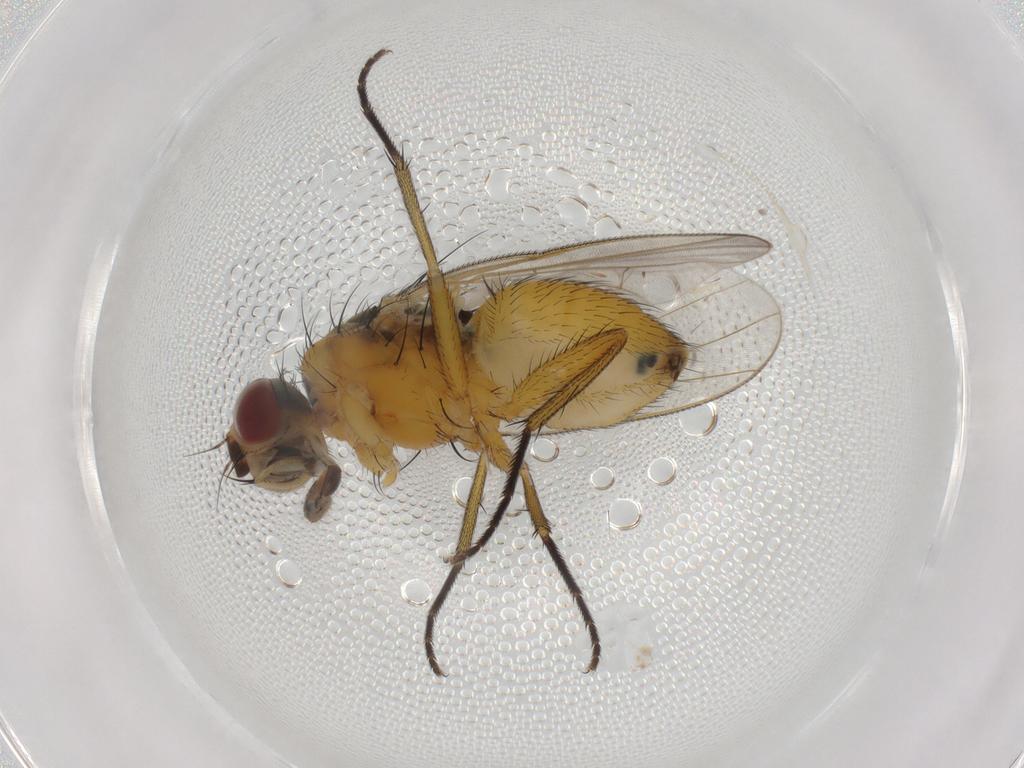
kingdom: Animalia
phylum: Arthropoda
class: Insecta
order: Diptera
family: Muscidae
